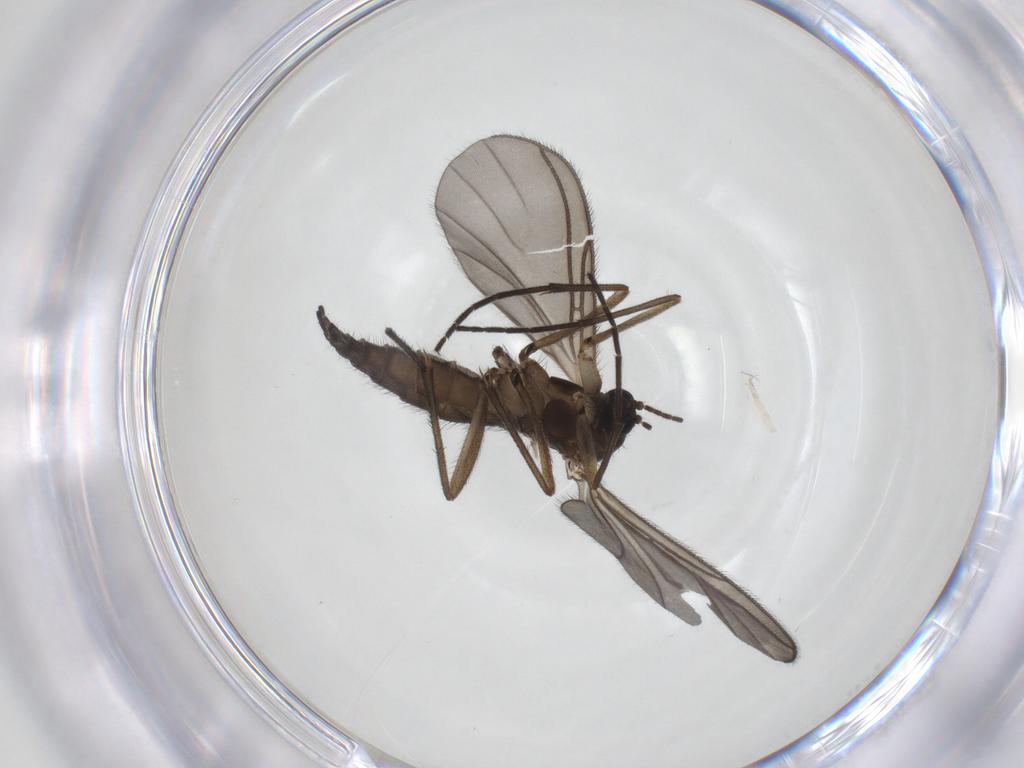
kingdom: Animalia
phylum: Arthropoda
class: Insecta
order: Diptera
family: Sciaridae
